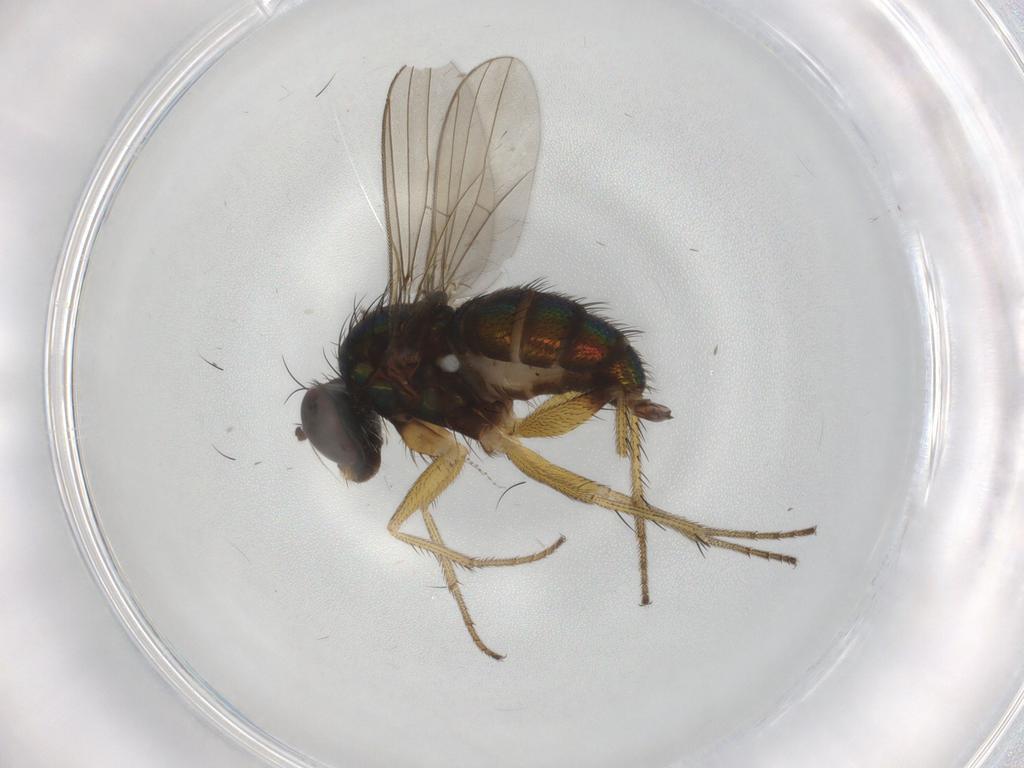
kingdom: Animalia
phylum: Arthropoda
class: Insecta
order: Diptera
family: Dolichopodidae
